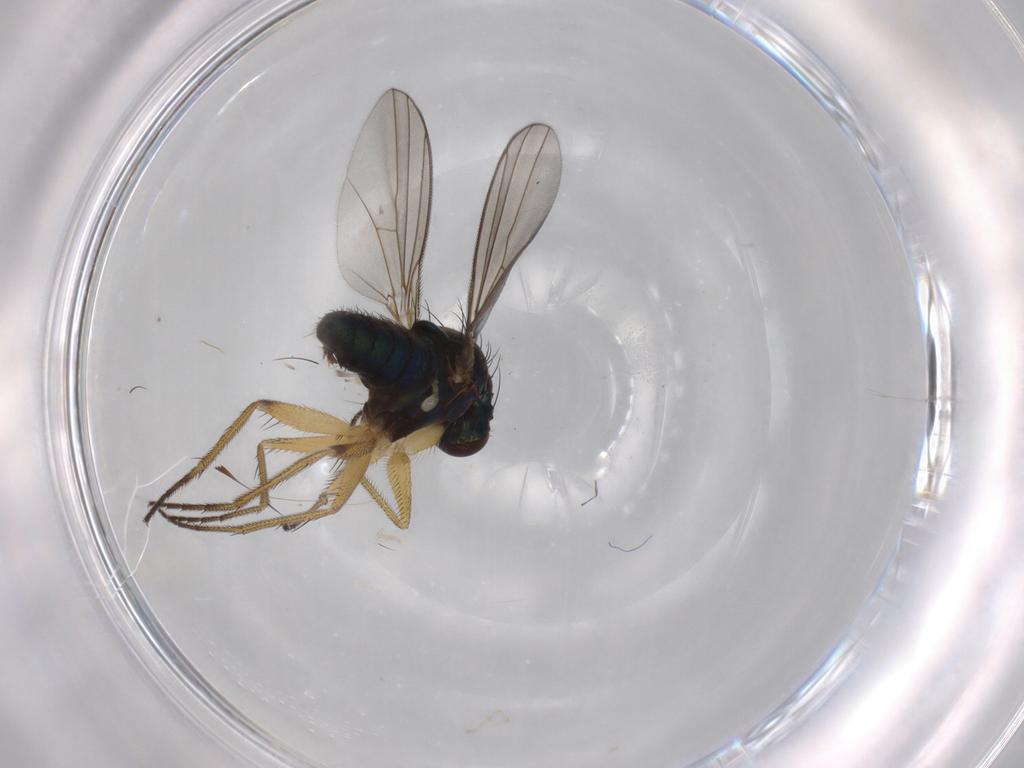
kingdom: Animalia
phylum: Arthropoda
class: Insecta
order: Diptera
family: Dolichopodidae
